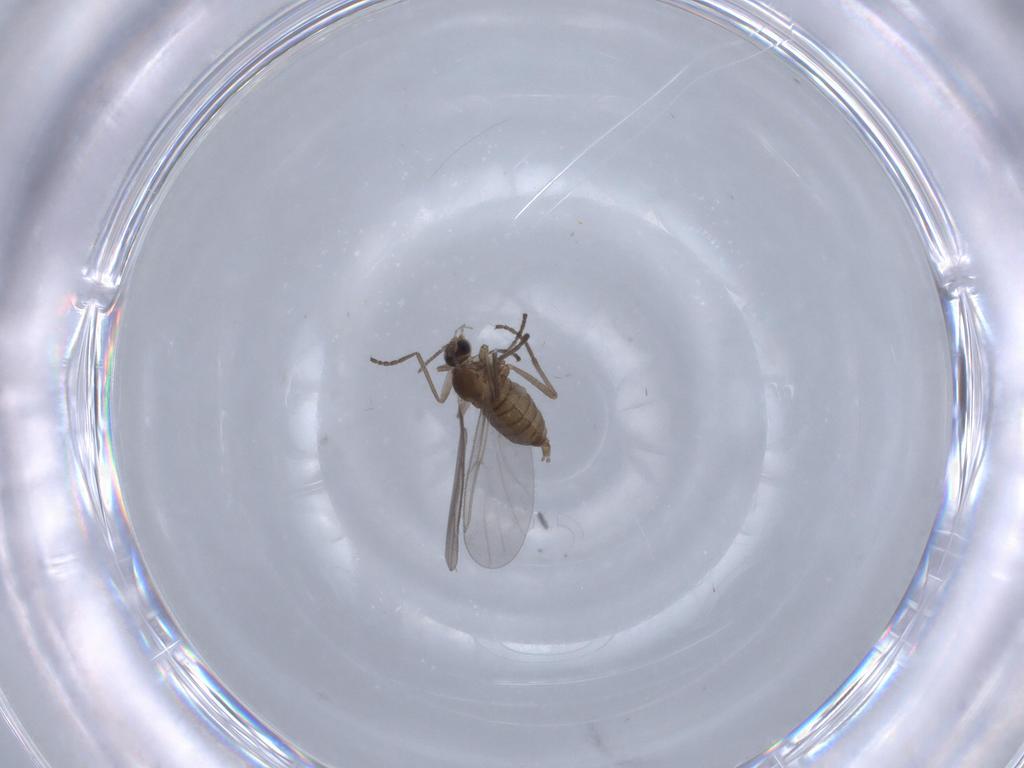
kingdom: Animalia
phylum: Arthropoda
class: Insecta
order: Diptera
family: Cecidomyiidae
